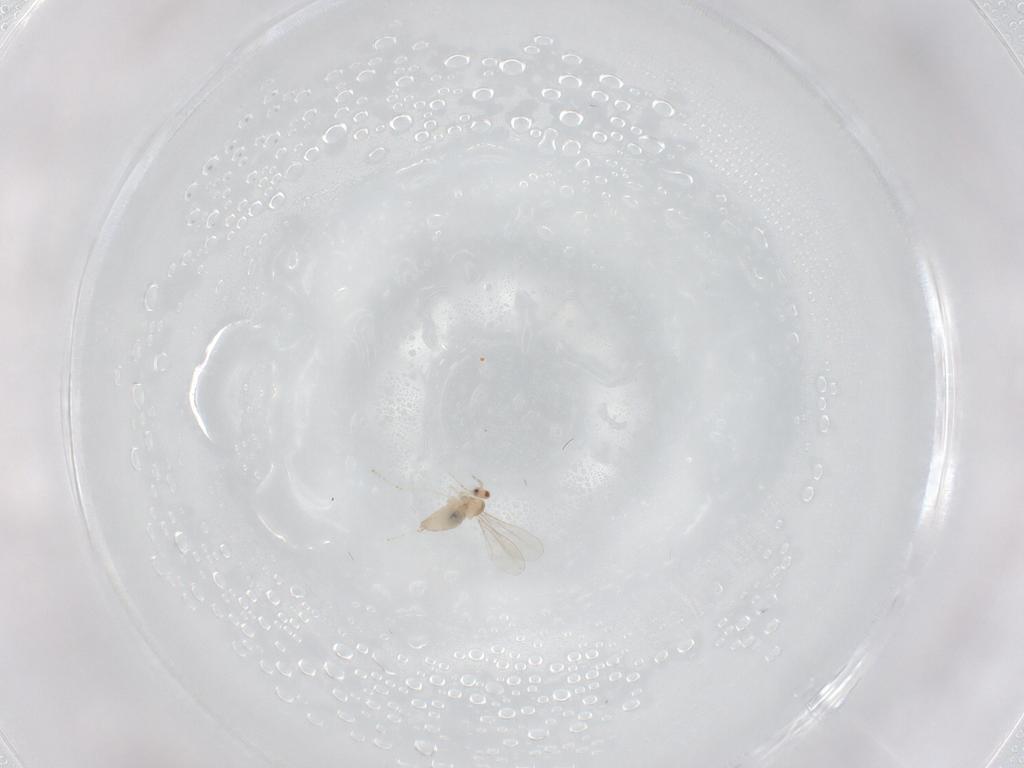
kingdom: Animalia
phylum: Arthropoda
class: Insecta
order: Diptera
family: Cecidomyiidae
